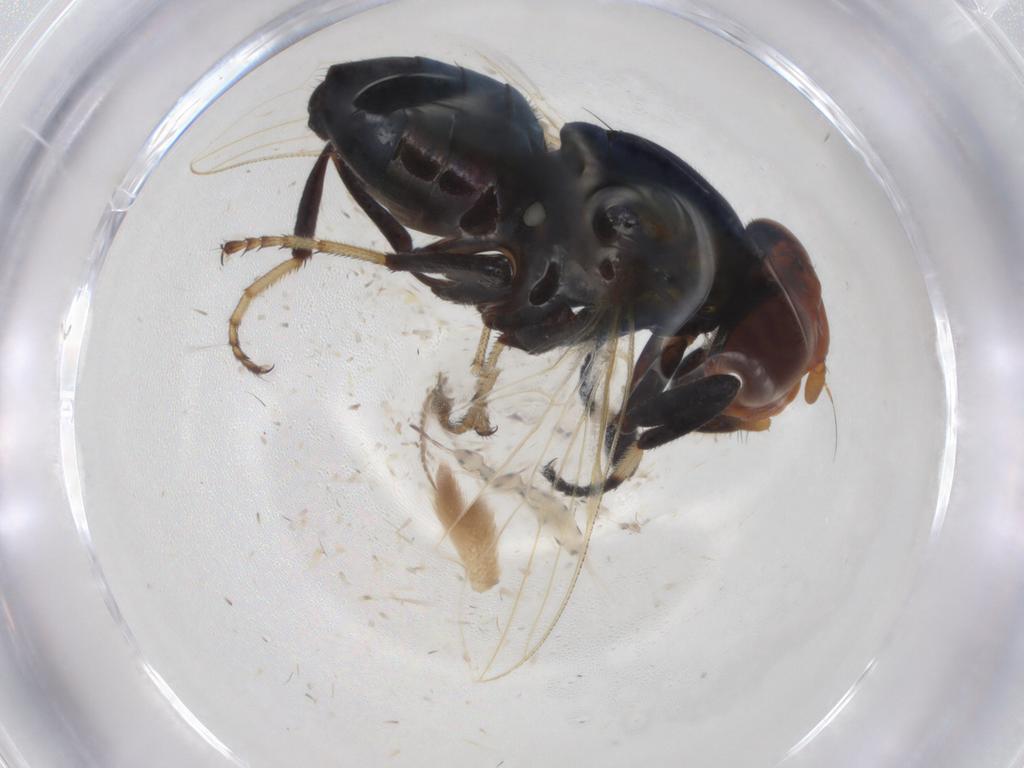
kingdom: Animalia
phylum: Arthropoda
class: Insecta
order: Diptera
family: Ulidiidae
